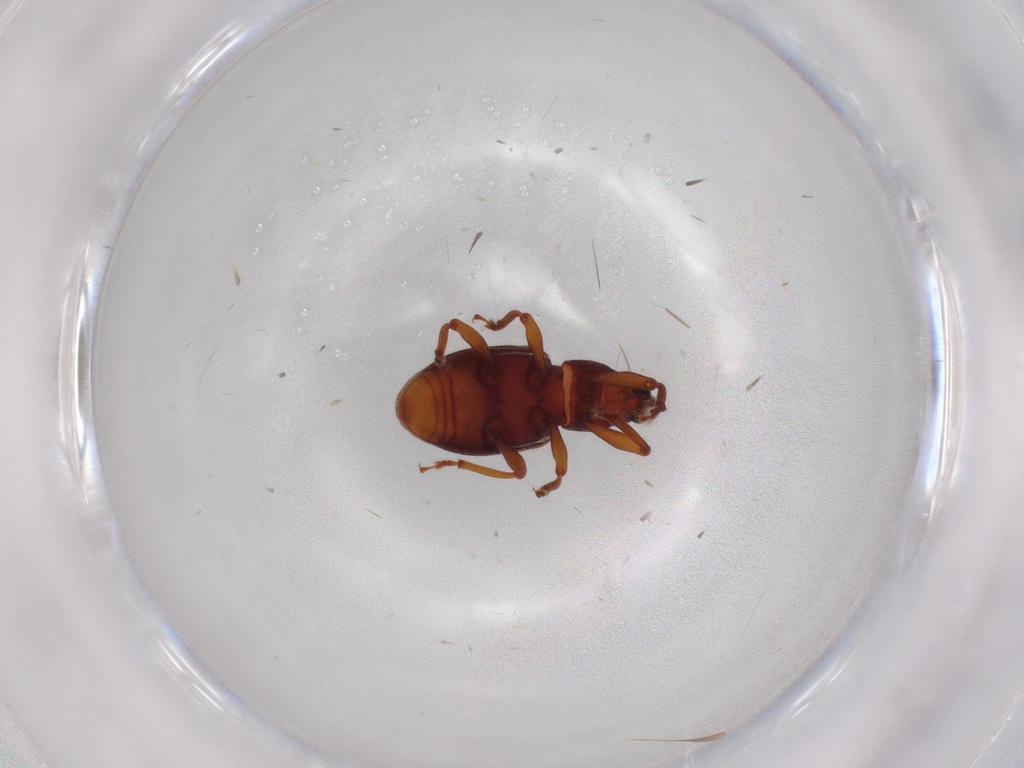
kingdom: Animalia
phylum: Arthropoda
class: Insecta
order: Coleoptera
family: Curculionidae
